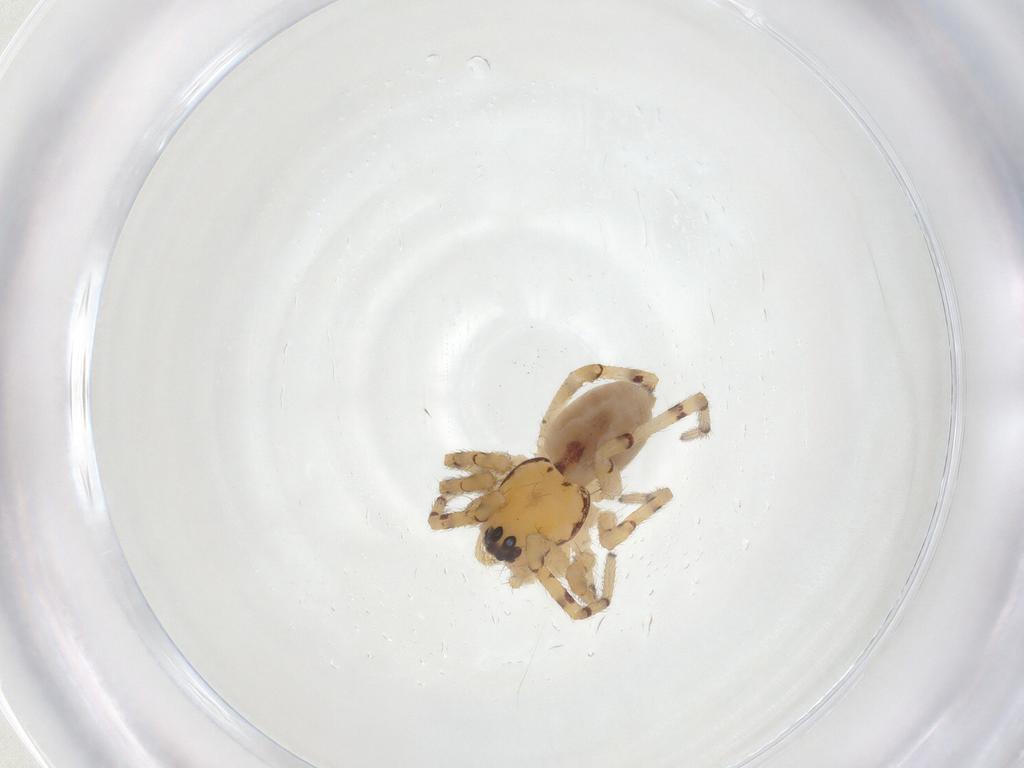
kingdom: Animalia
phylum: Arthropoda
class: Arachnida
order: Araneae
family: Corinnidae
